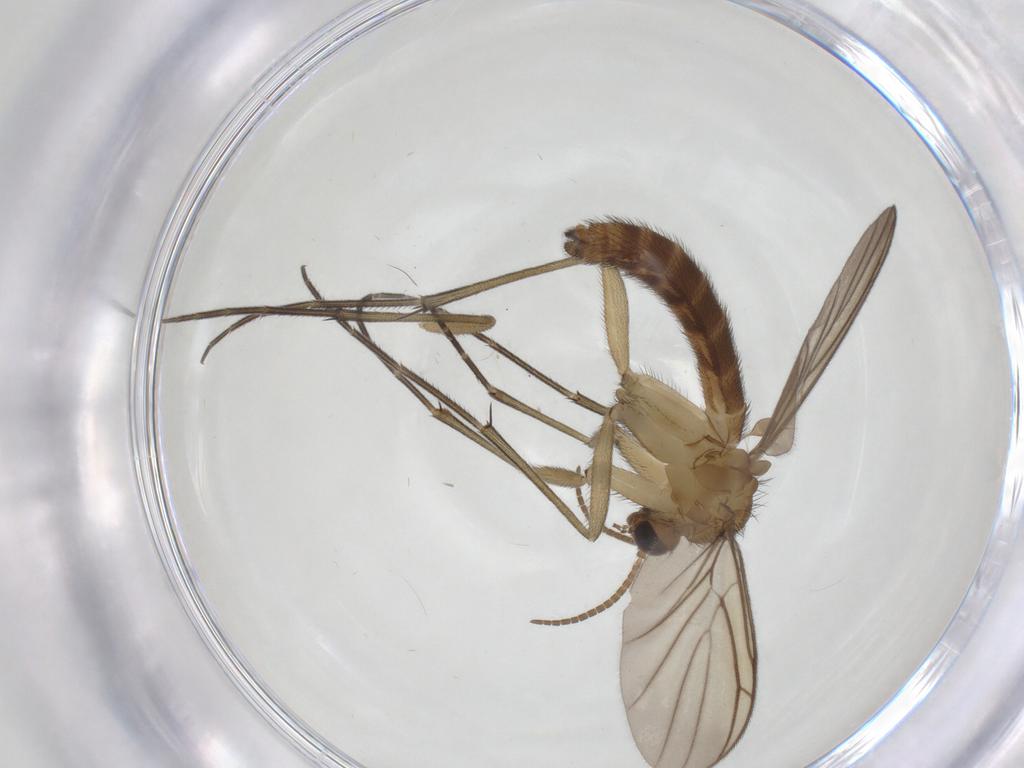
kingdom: Animalia
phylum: Arthropoda
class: Insecta
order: Diptera
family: Keroplatidae
